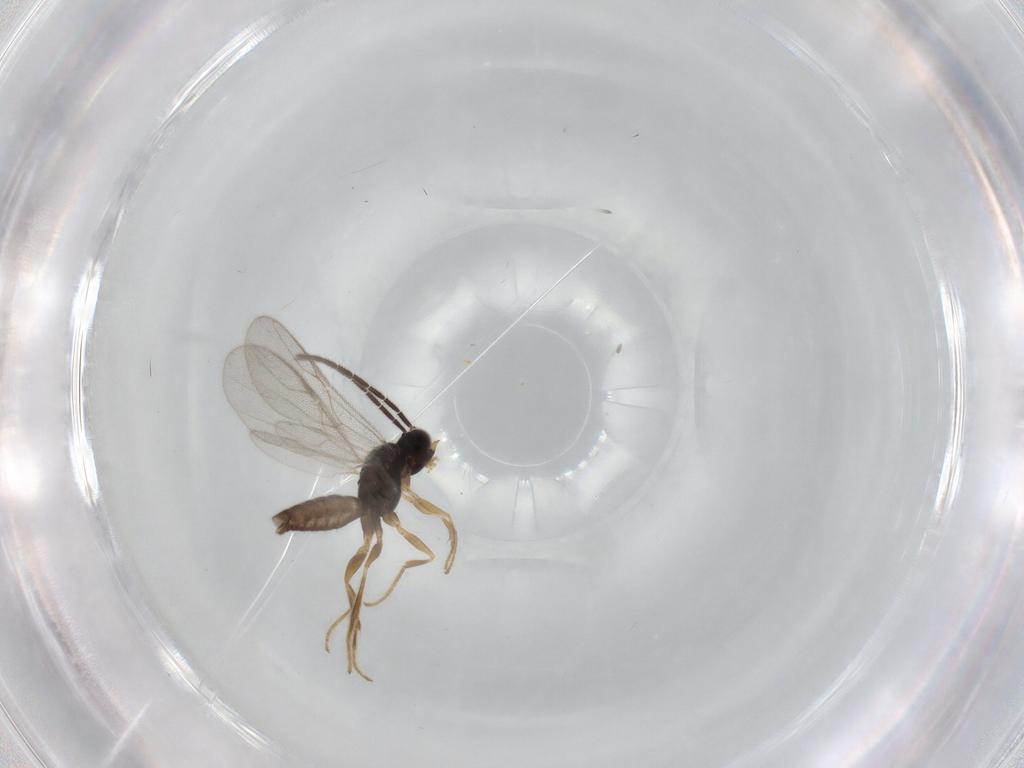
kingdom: Animalia
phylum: Arthropoda
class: Insecta
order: Hymenoptera
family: Dryinidae
